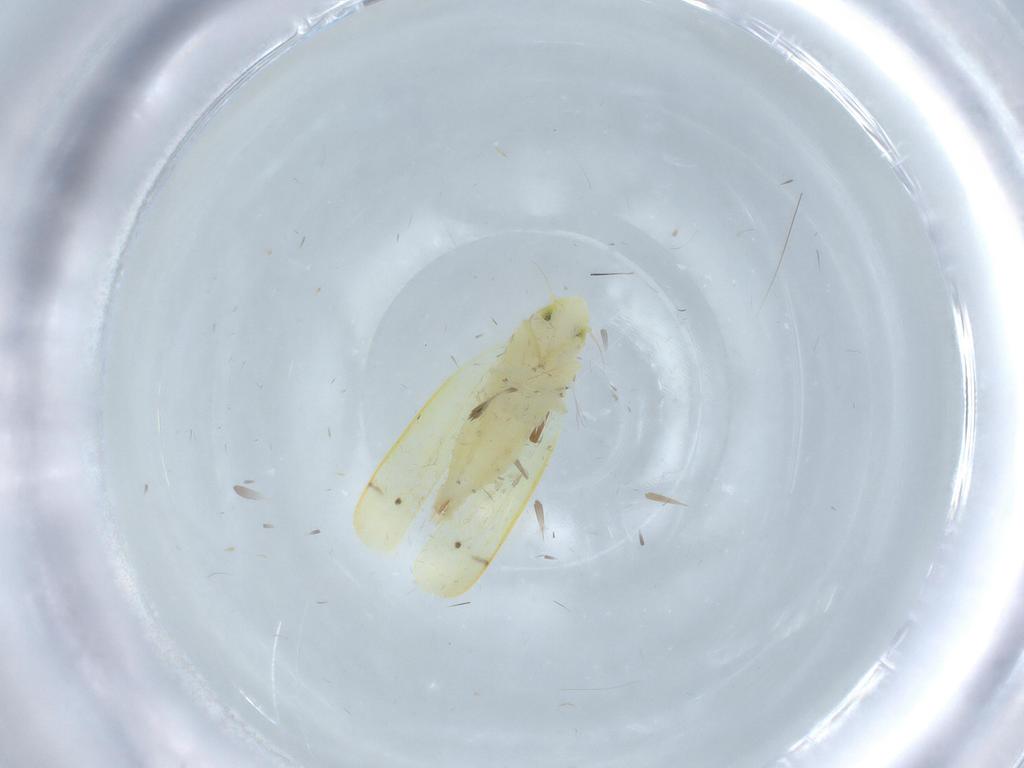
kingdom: Animalia
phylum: Arthropoda
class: Insecta
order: Hemiptera
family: Cicadellidae
